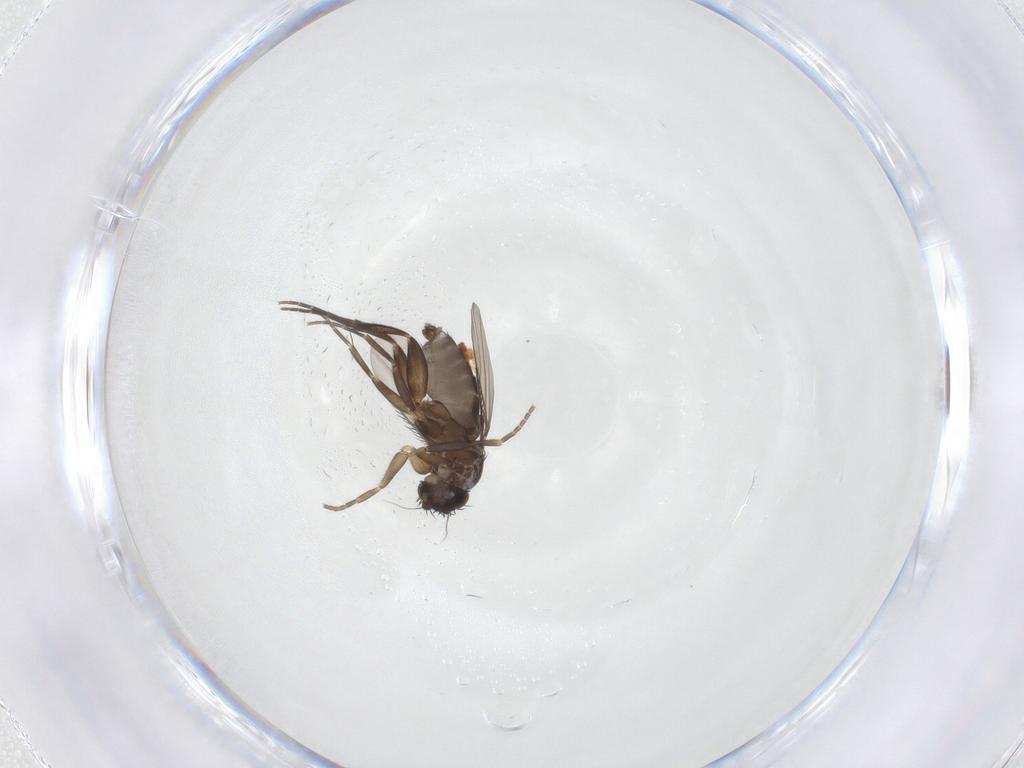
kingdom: Animalia
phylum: Arthropoda
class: Insecta
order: Diptera
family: Phoridae
